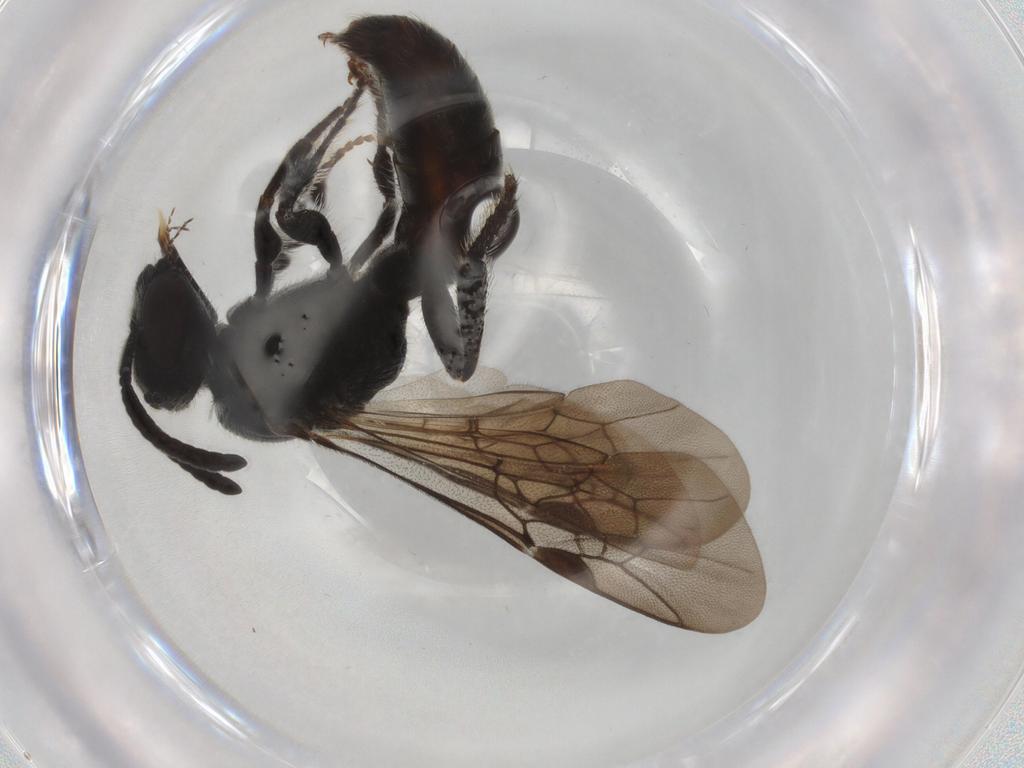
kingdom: Animalia
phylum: Arthropoda
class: Insecta
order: Hymenoptera
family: Formicidae
